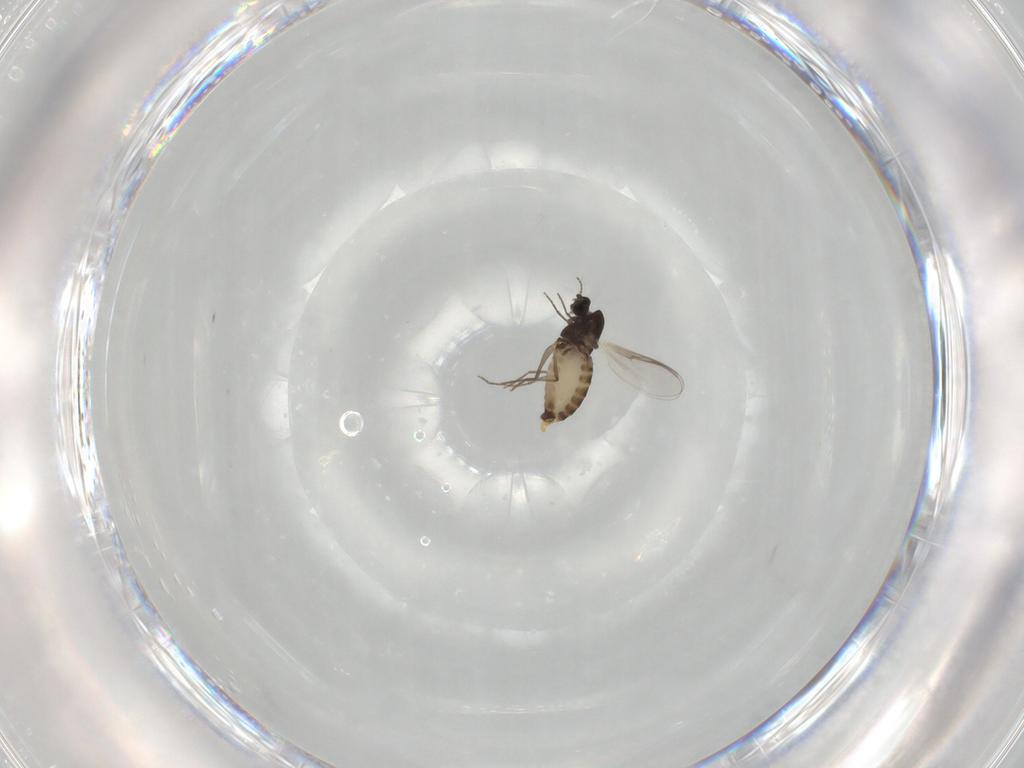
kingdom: Animalia
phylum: Arthropoda
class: Insecta
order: Diptera
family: Chironomidae
